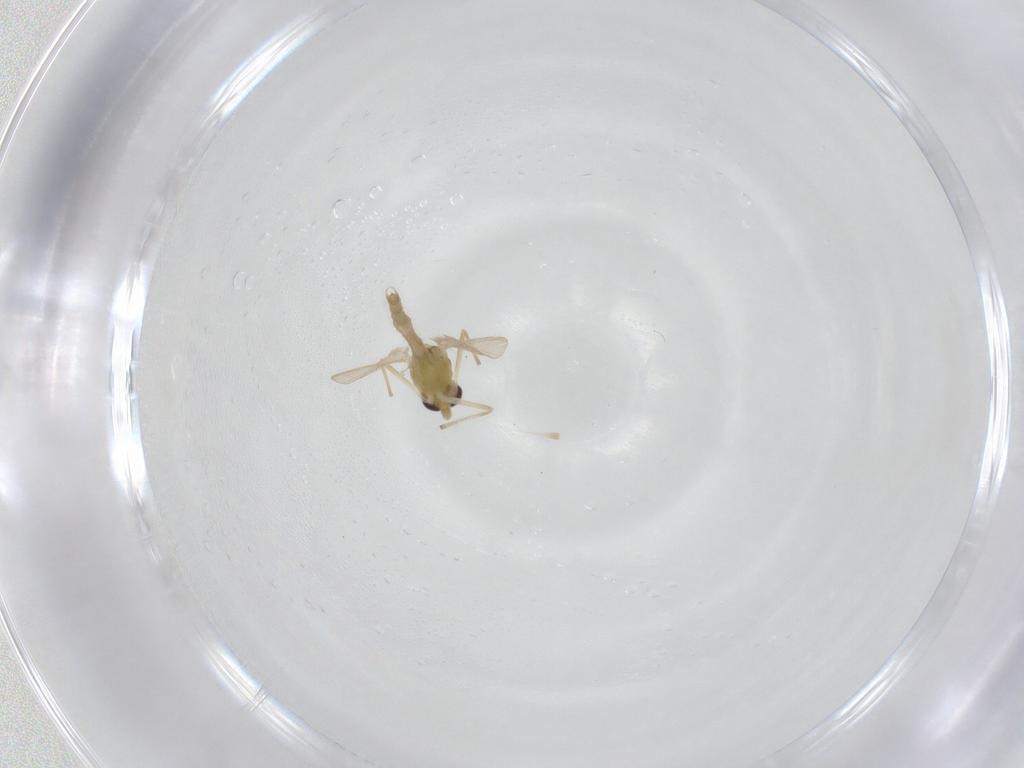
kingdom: Animalia
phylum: Arthropoda
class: Insecta
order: Diptera
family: Chironomidae
